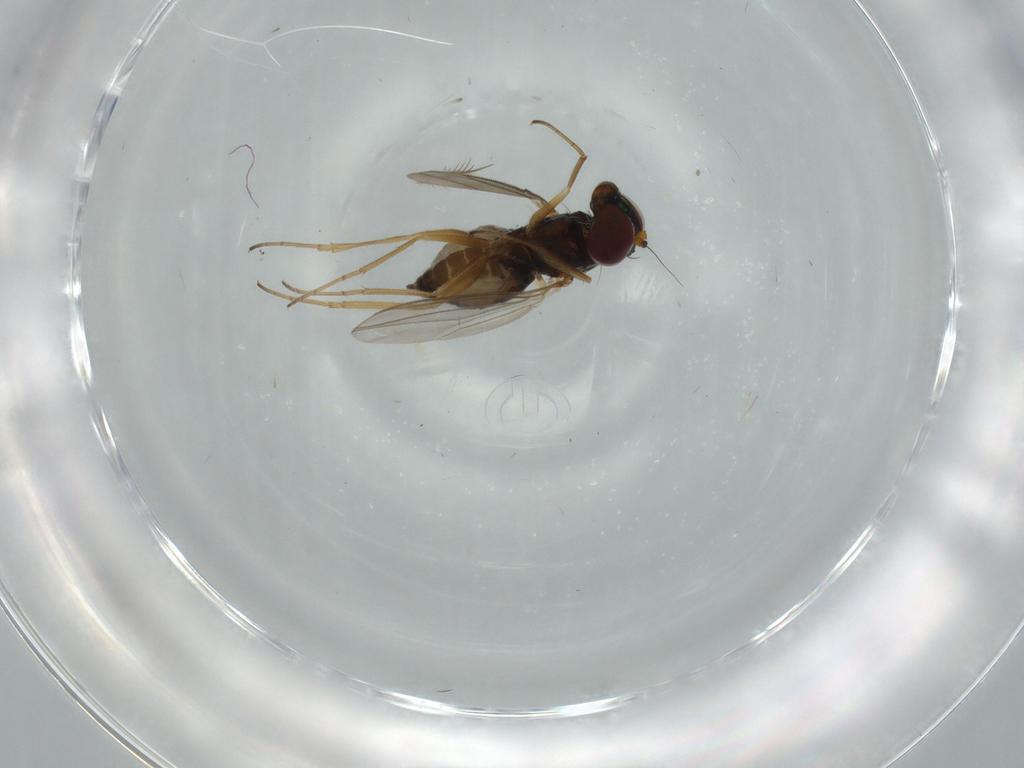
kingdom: Animalia
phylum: Arthropoda
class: Insecta
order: Diptera
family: Dolichopodidae
